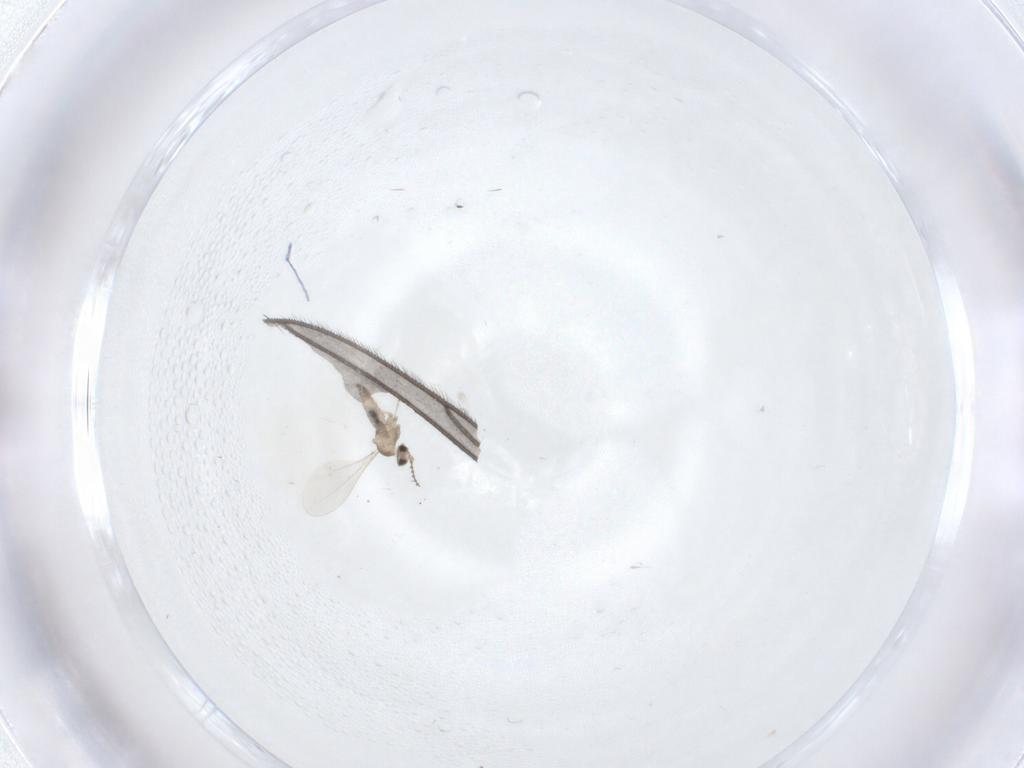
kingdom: Animalia
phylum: Arthropoda
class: Insecta
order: Diptera
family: Sciaridae
